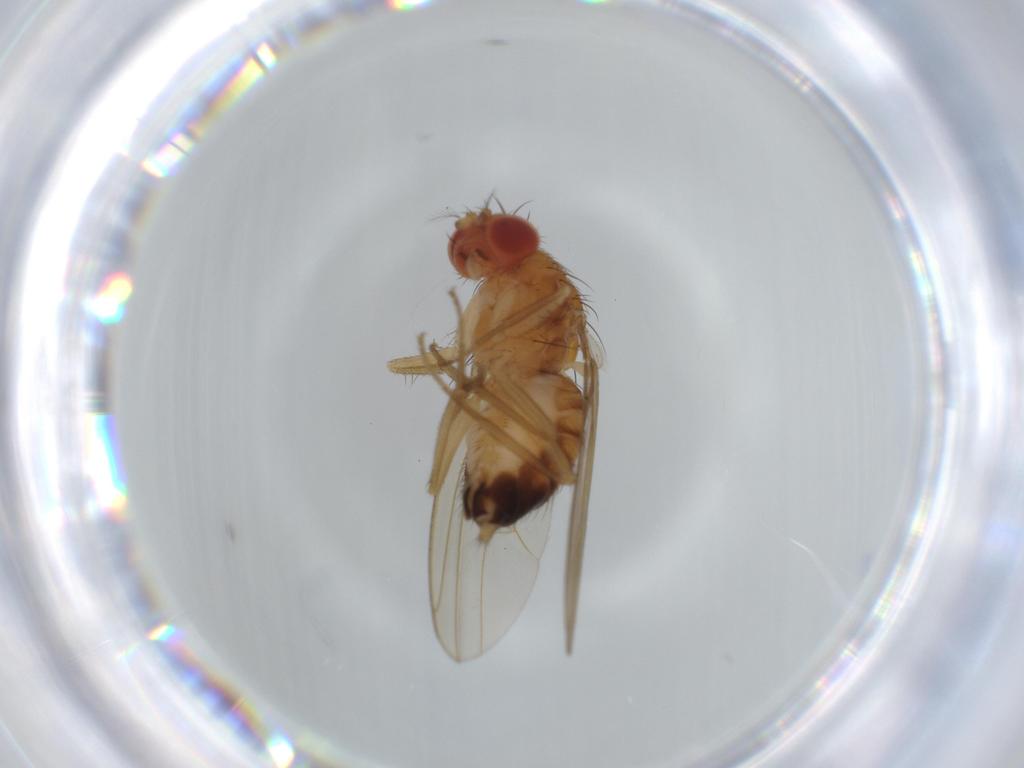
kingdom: Animalia
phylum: Arthropoda
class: Insecta
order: Diptera
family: Drosophilidae
